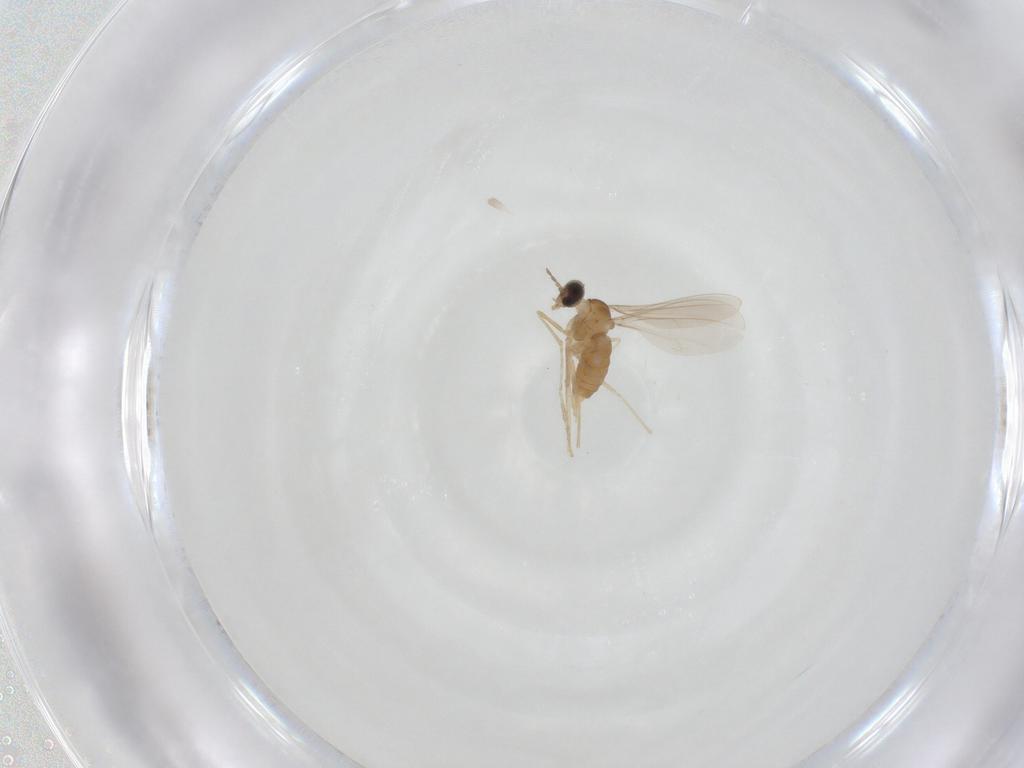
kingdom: Animalia
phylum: Arthropoda
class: Insecta
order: Diptera
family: Cecidomyiidae
